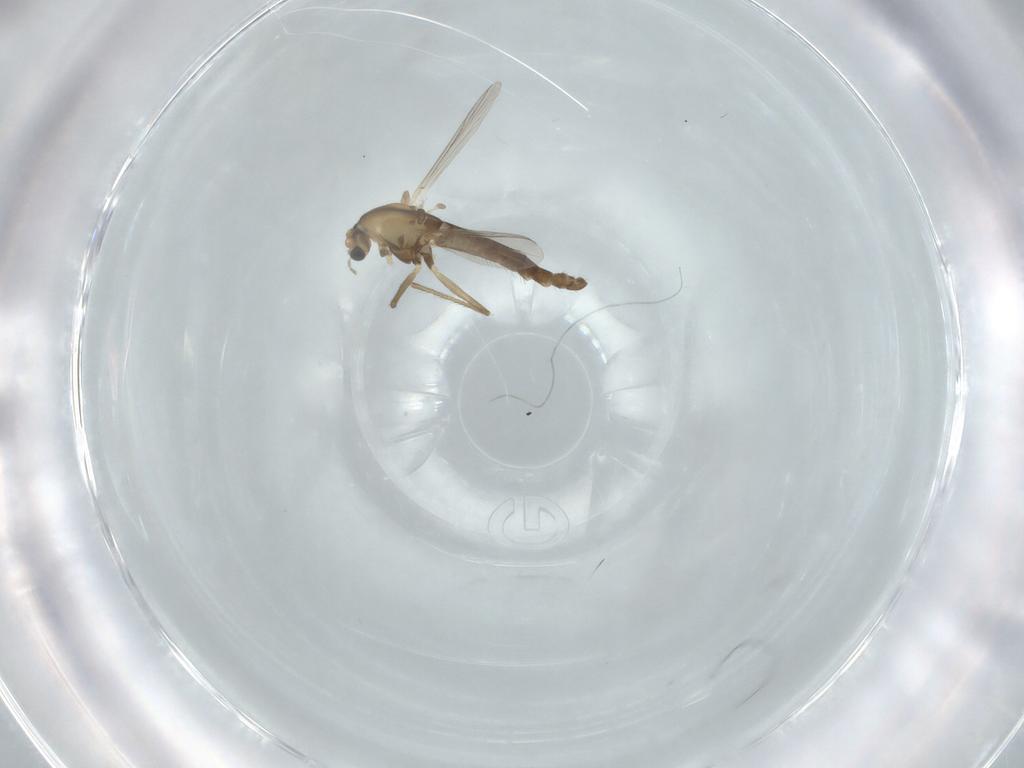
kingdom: Animalia
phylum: Arthropoda
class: Insecta
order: Diptera
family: Chironomidae
